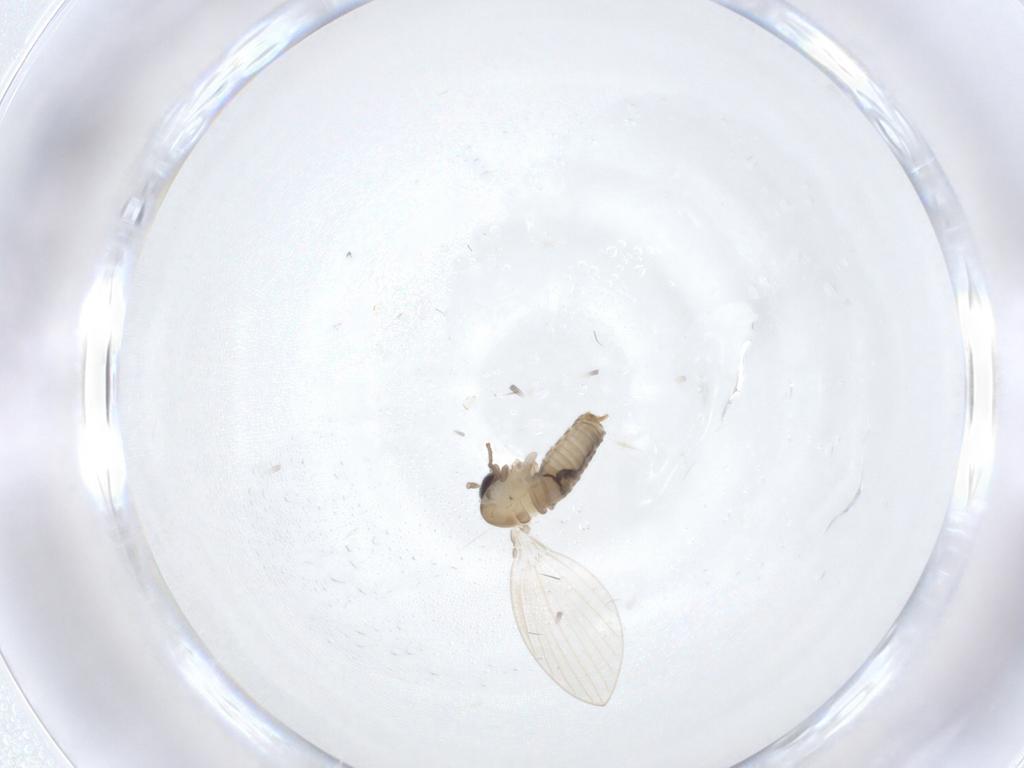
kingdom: Animalia
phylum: Arthropoda
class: Insecta
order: Diptera
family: Psychodidae
